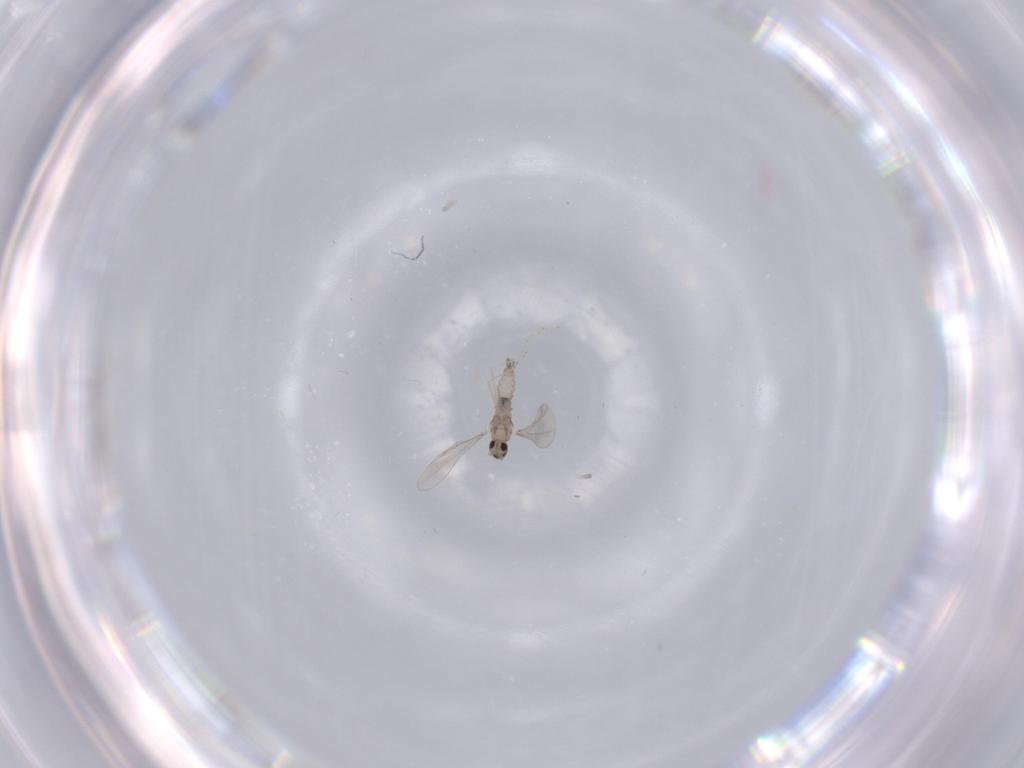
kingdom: Animalia
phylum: Arthropoda
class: Insecta
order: Diptera
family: Cecidomyiidae
